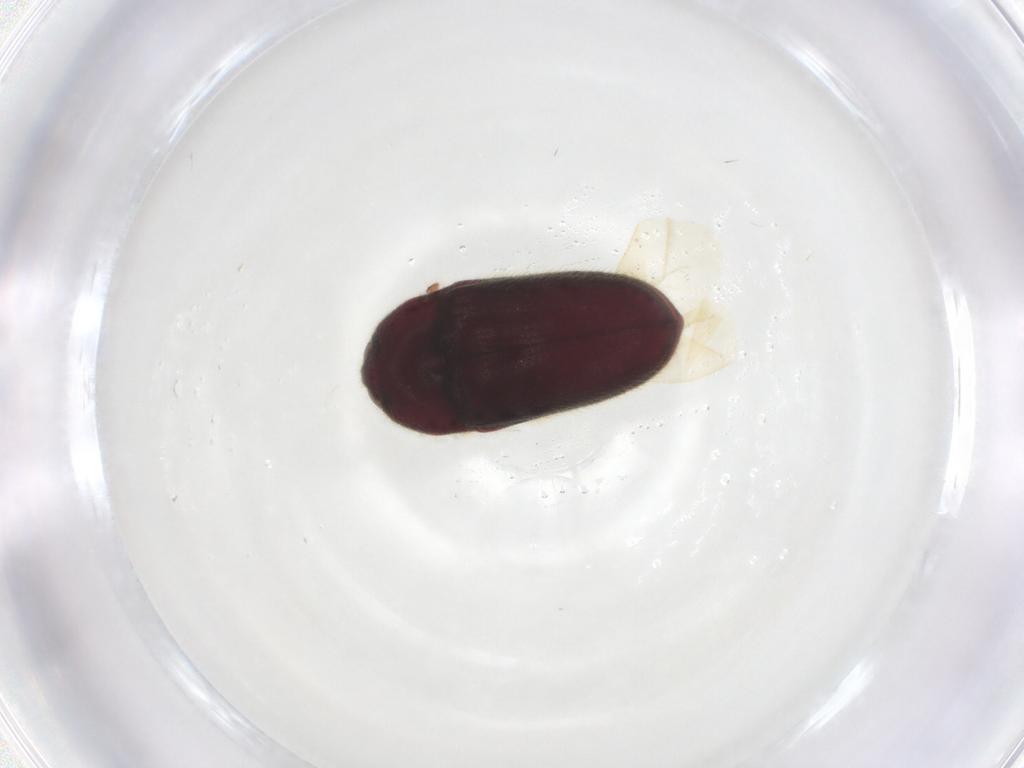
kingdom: Animalia
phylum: Arthropoda
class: Insecta
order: Coleoptera
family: Throscidae
